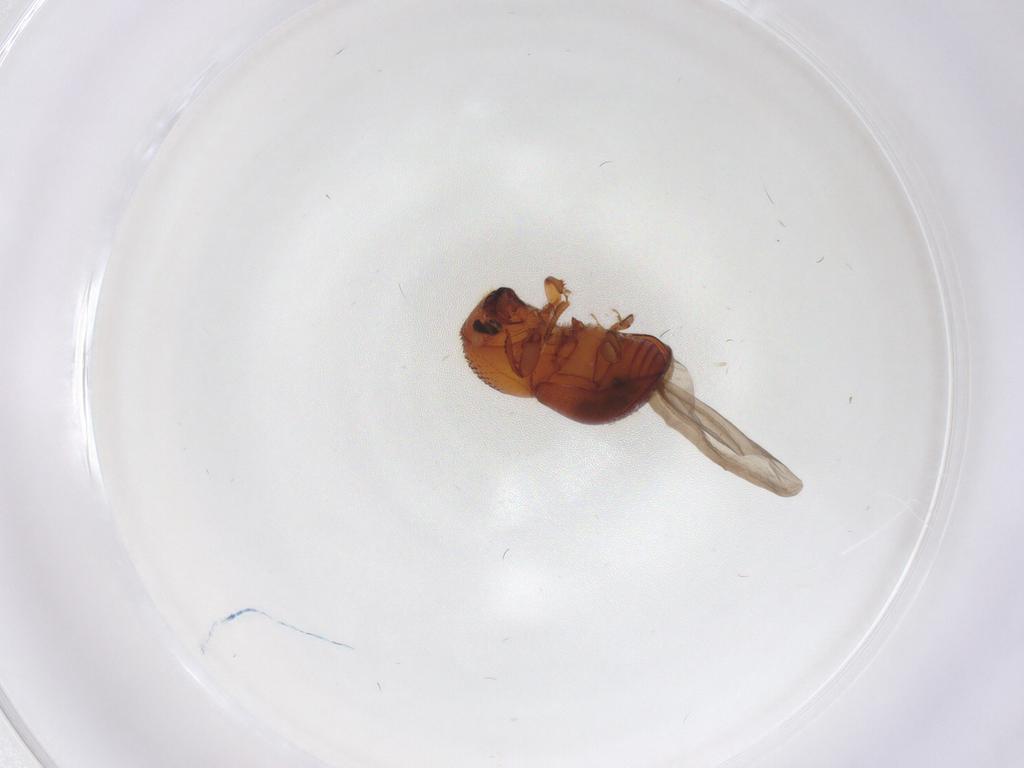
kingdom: Animalia
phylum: Arthropoda
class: Insecta
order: Coleoptera
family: Curculionidae
